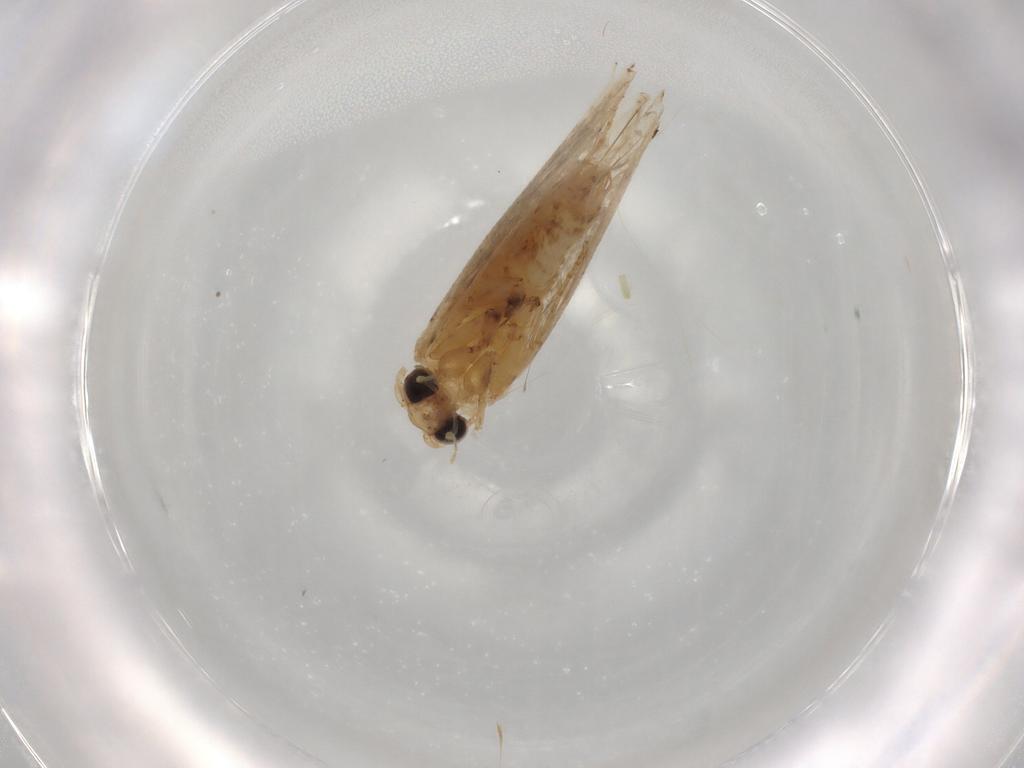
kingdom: Animalia
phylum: Arthropoda
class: Insecta
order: Lepidoptera
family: Tineidae
